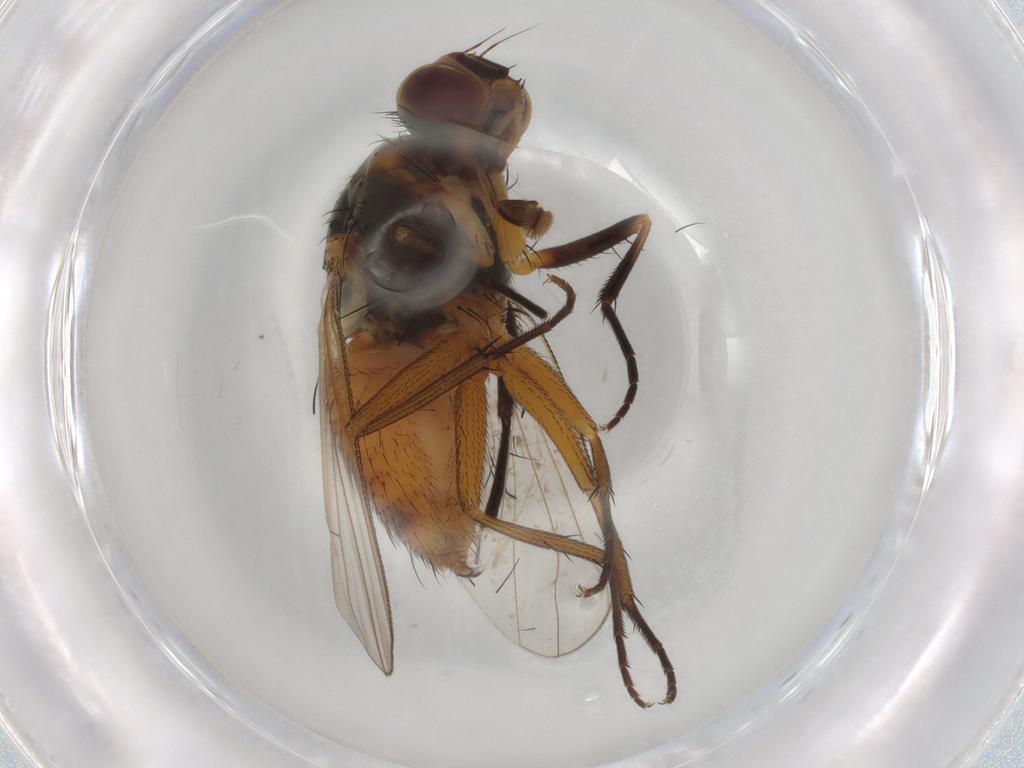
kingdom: Animalia
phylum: Arthropoda
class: Insecta
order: Diptera
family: Muscidae
